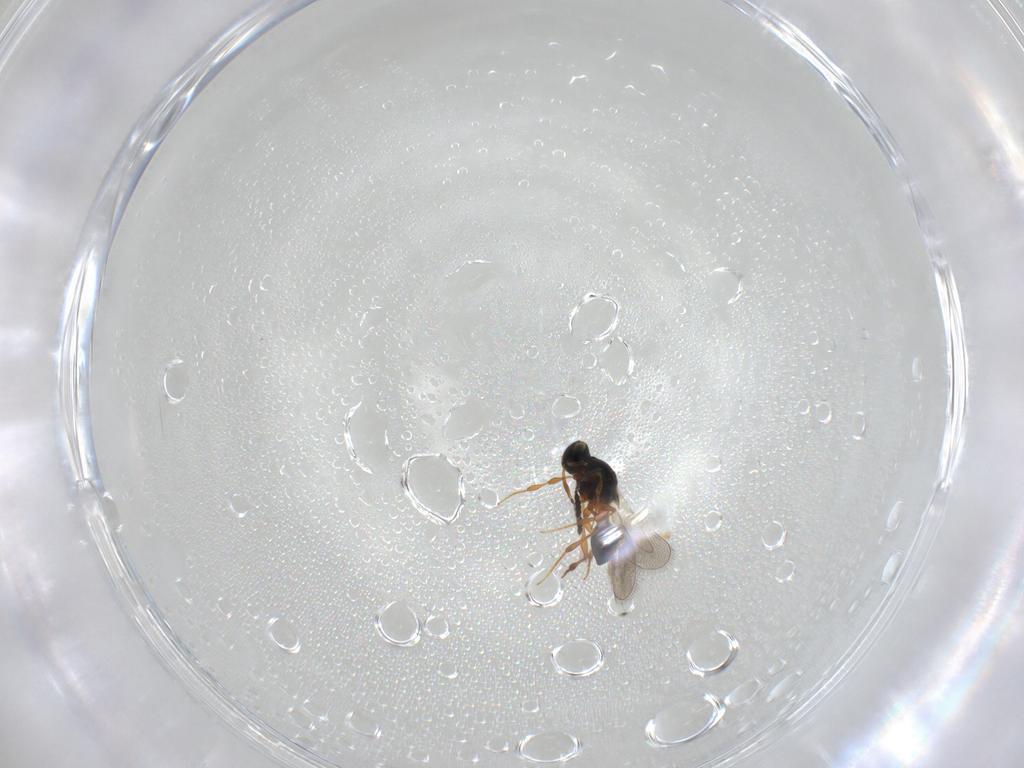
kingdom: Animalia
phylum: Arthropoda
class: Insecta
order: Hymenoptera
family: Platygastridae
